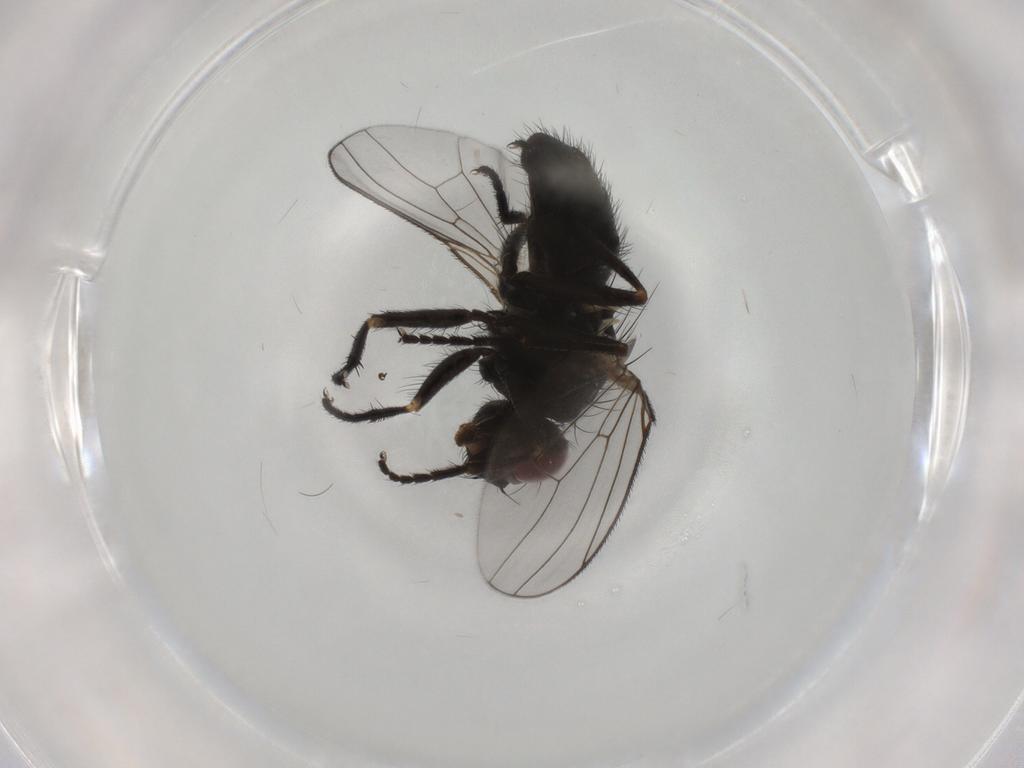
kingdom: Animalia
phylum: Arthropoda
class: Insecta
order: Diptera
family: Muscidae
